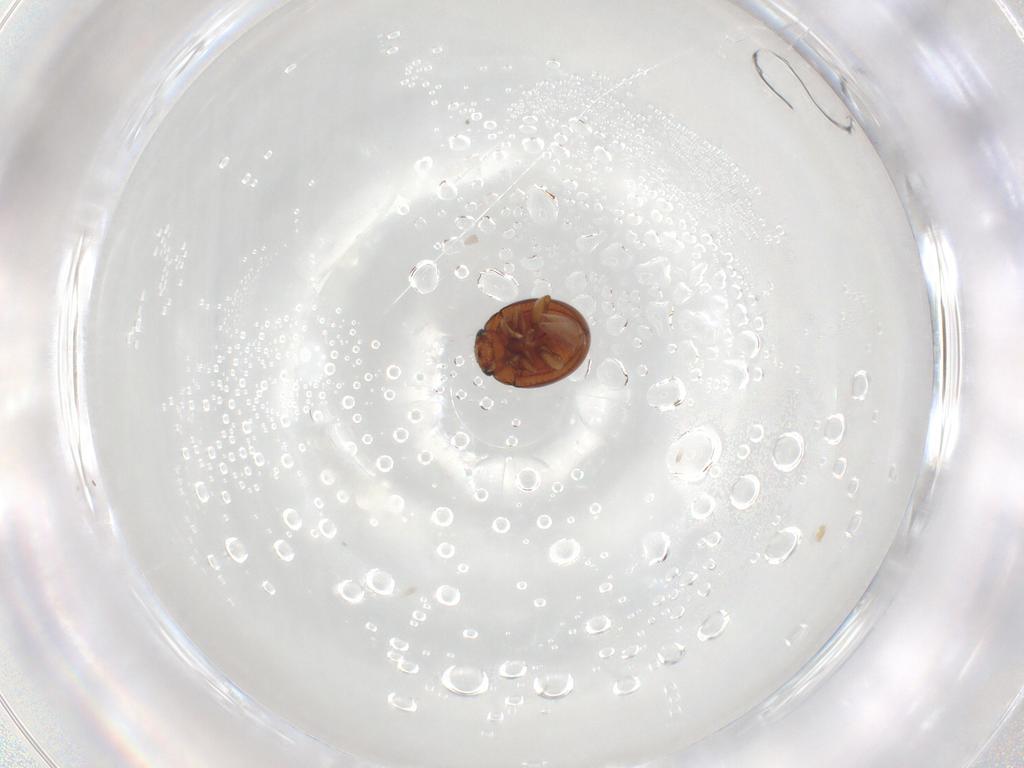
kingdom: Animalia
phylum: Arthropoda
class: Insecta
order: Coleoptera
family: Chrysomelidae
